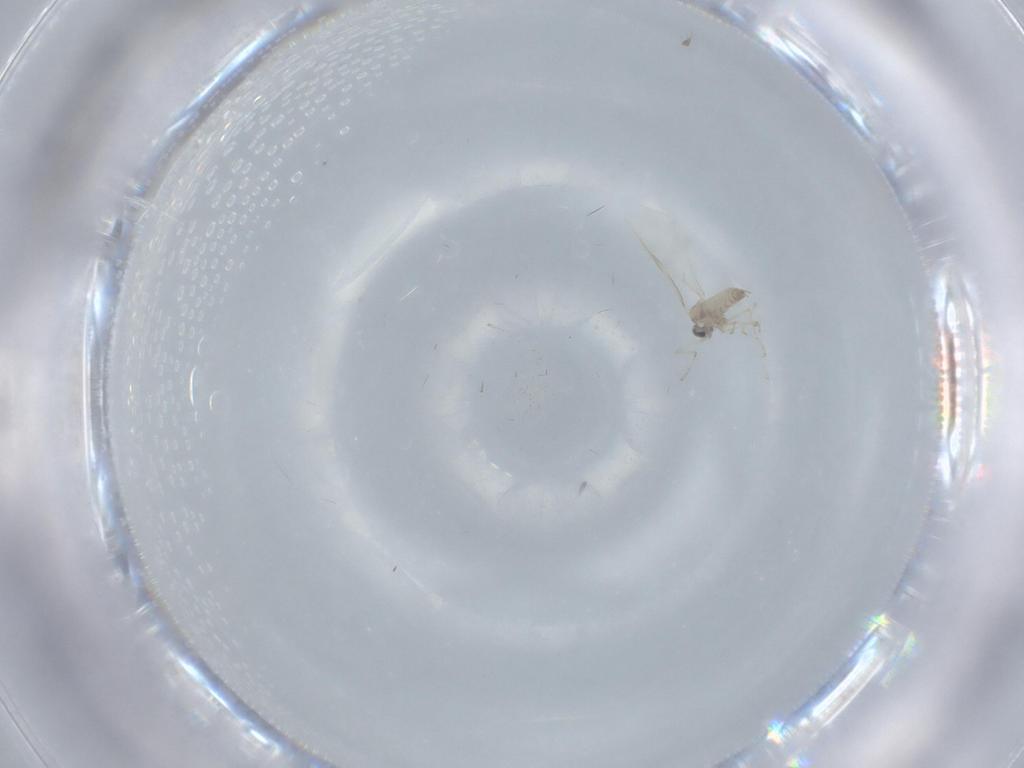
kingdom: Animalia
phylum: Arthropoda
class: Insecta
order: Diptera
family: Cecidomyiidae
